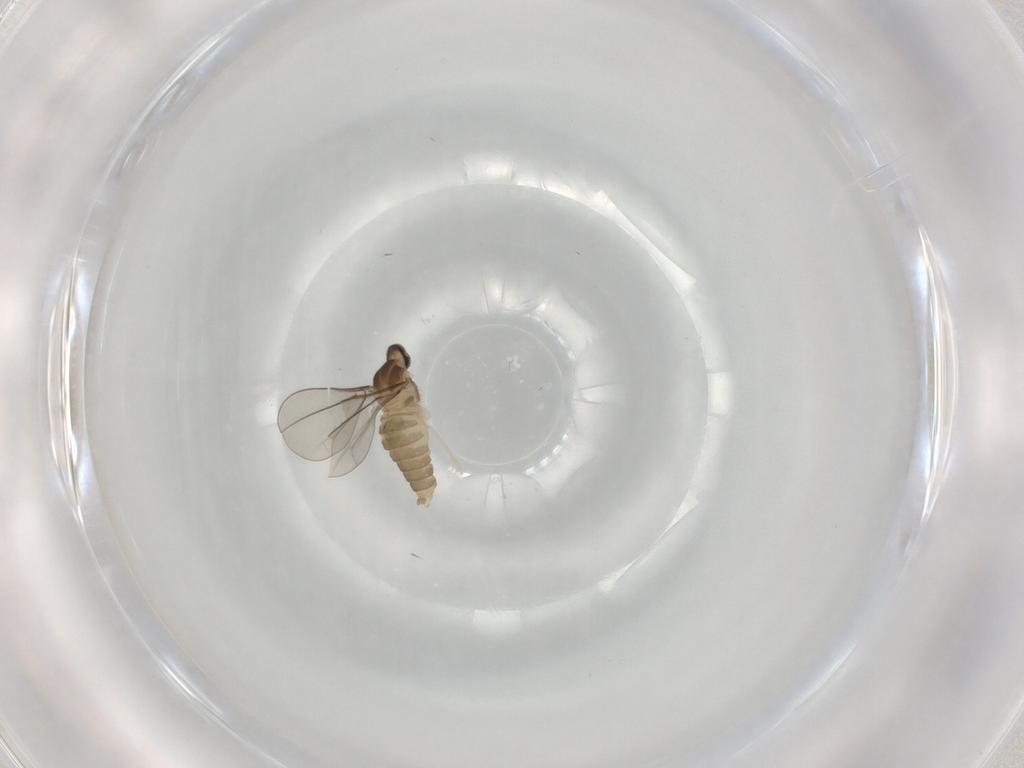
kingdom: Animalia
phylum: Arthropoda
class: Insecta
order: Diptera
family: Cecidomyiidae
